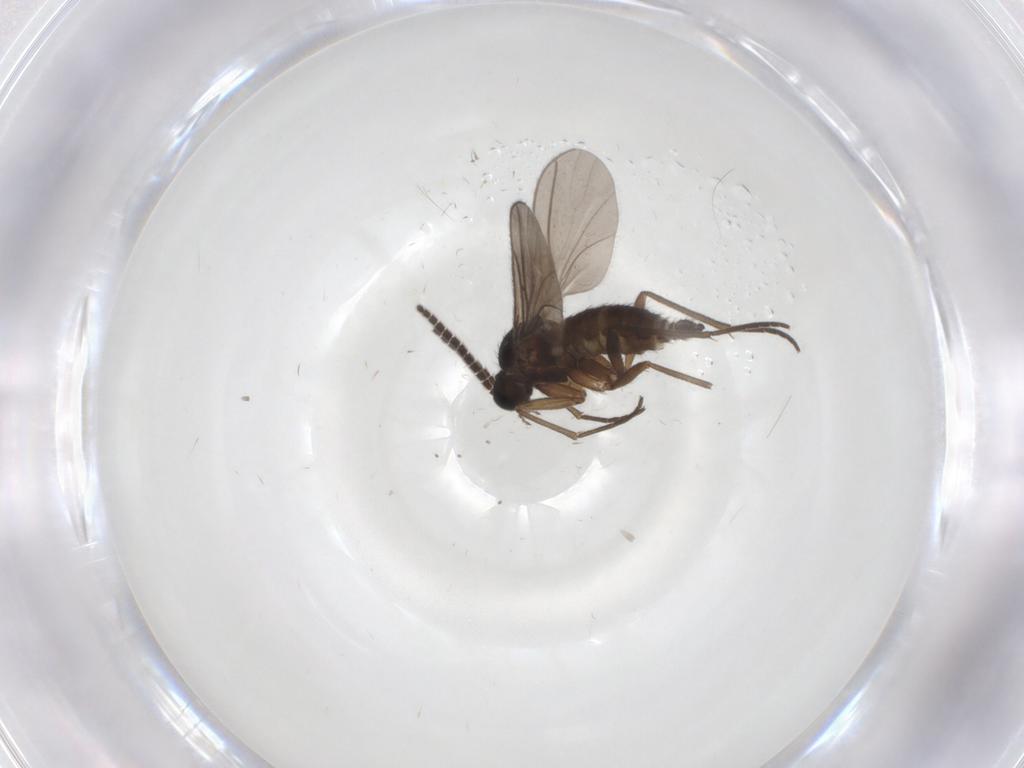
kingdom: Animalia
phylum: Arthropoda
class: Insecta
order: Diptera
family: Sciaridae
